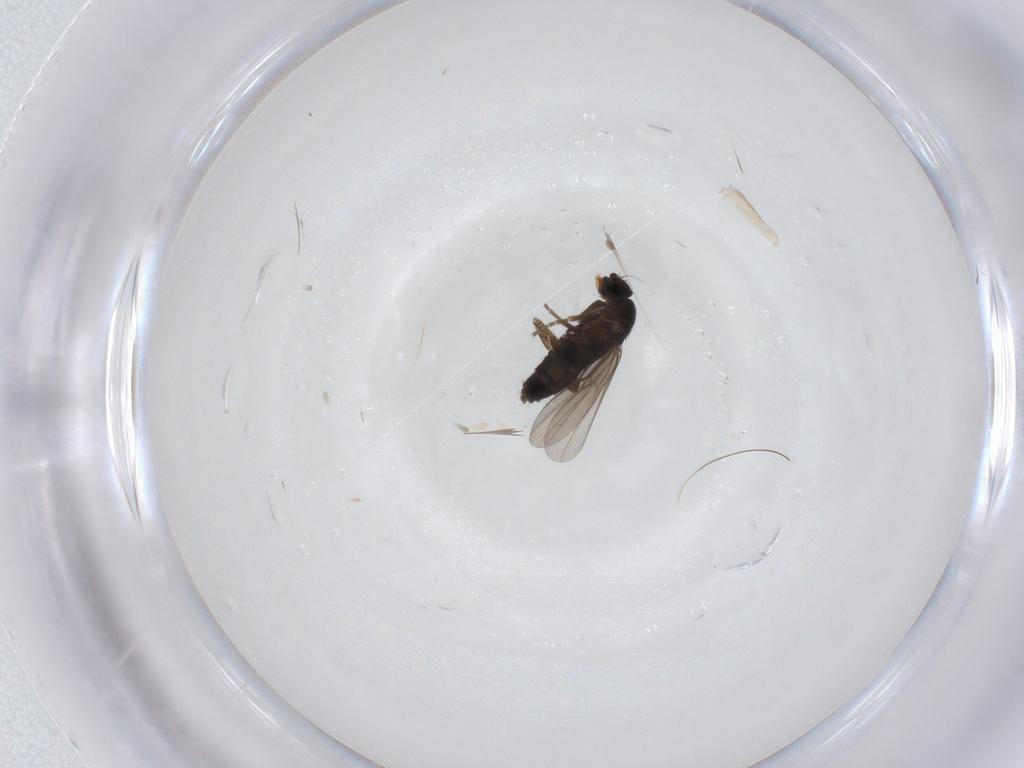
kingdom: Animalia
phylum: Arthropoda
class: Insecta
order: Diptera
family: Phoridae
